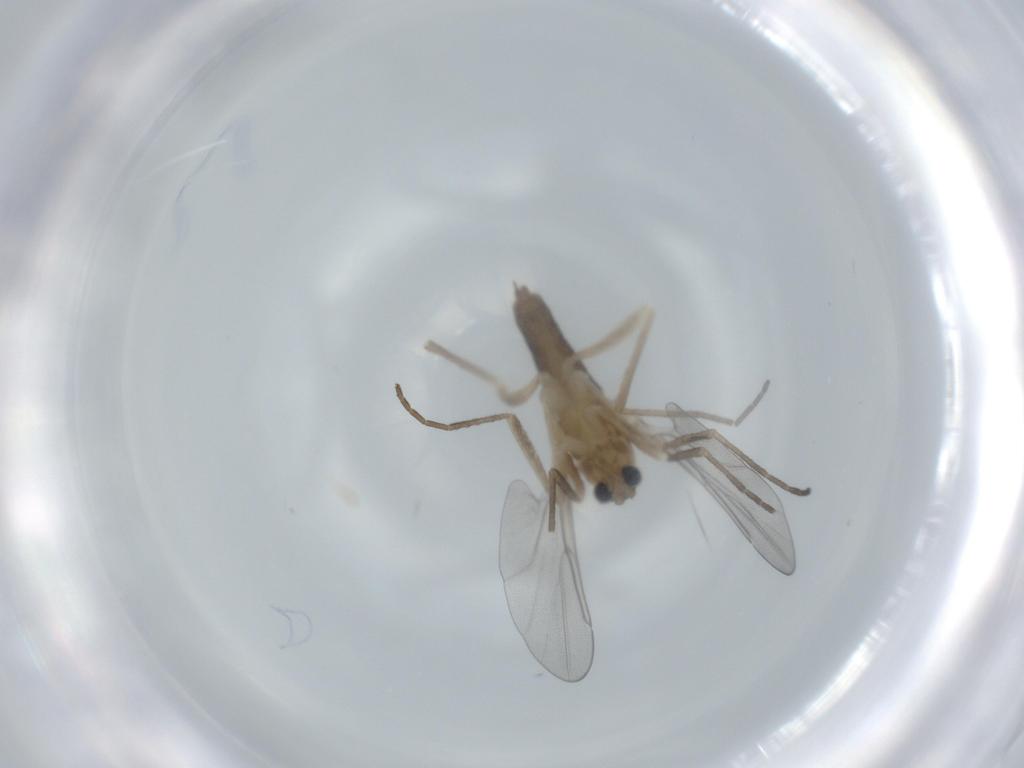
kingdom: Animalia
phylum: Arthropoda
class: Insecta
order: Diptera
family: Cecidomyiidae
